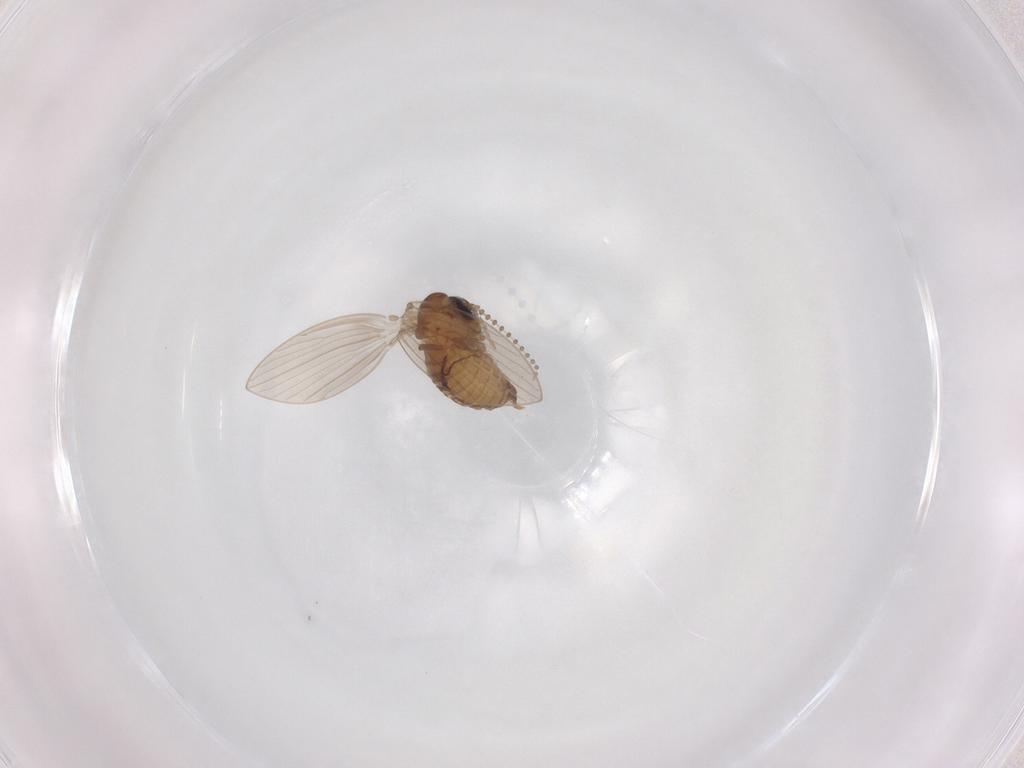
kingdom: Animalia
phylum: Arthropoda
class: Insecta
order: Diptera
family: Psychodidae
